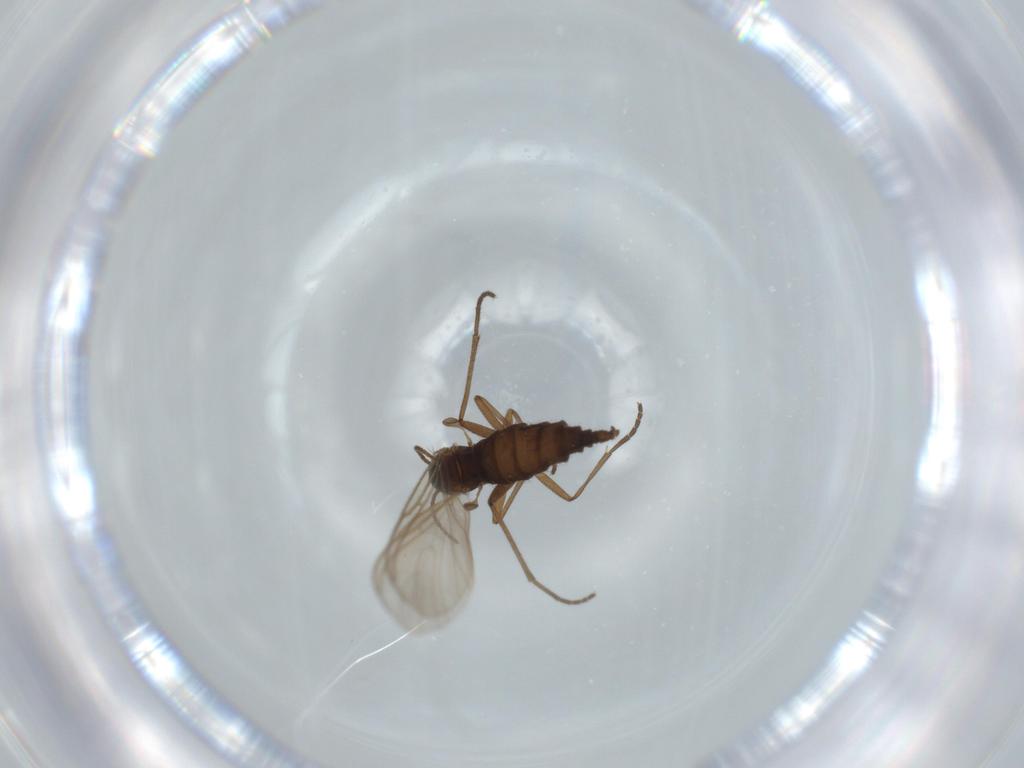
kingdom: Animalia
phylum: Arthropoda
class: Insecta
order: Diptera
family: Sciaridae
